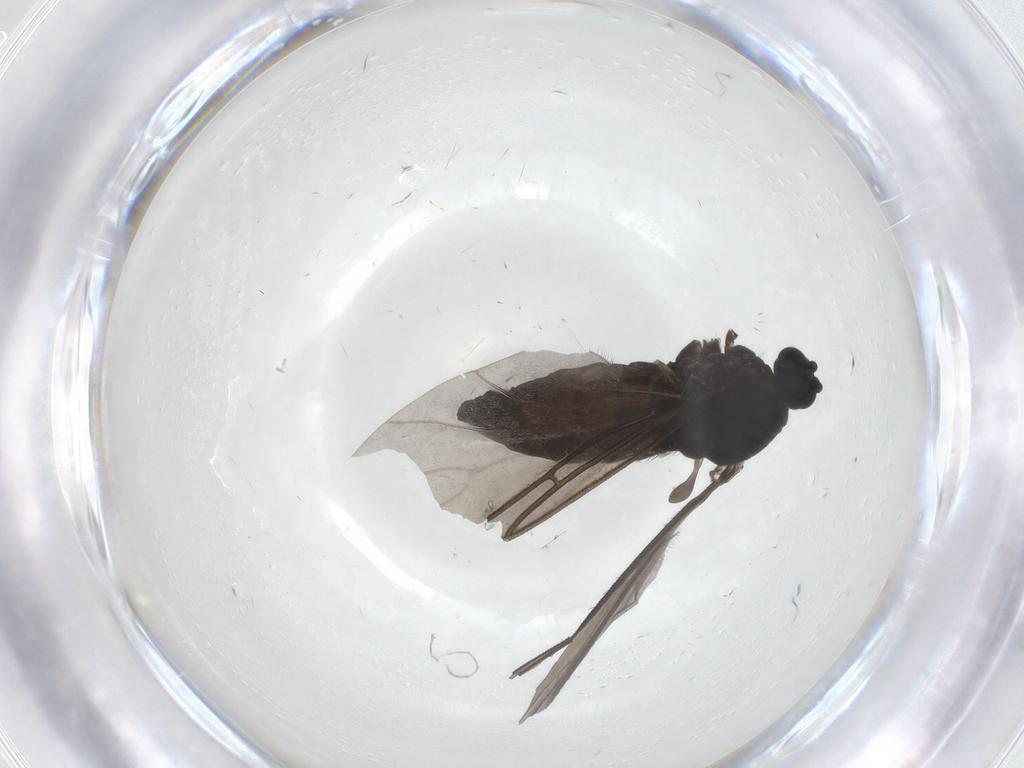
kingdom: Animalia
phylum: Arthropoda
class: Insecta
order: Diptera
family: Sciaridae
